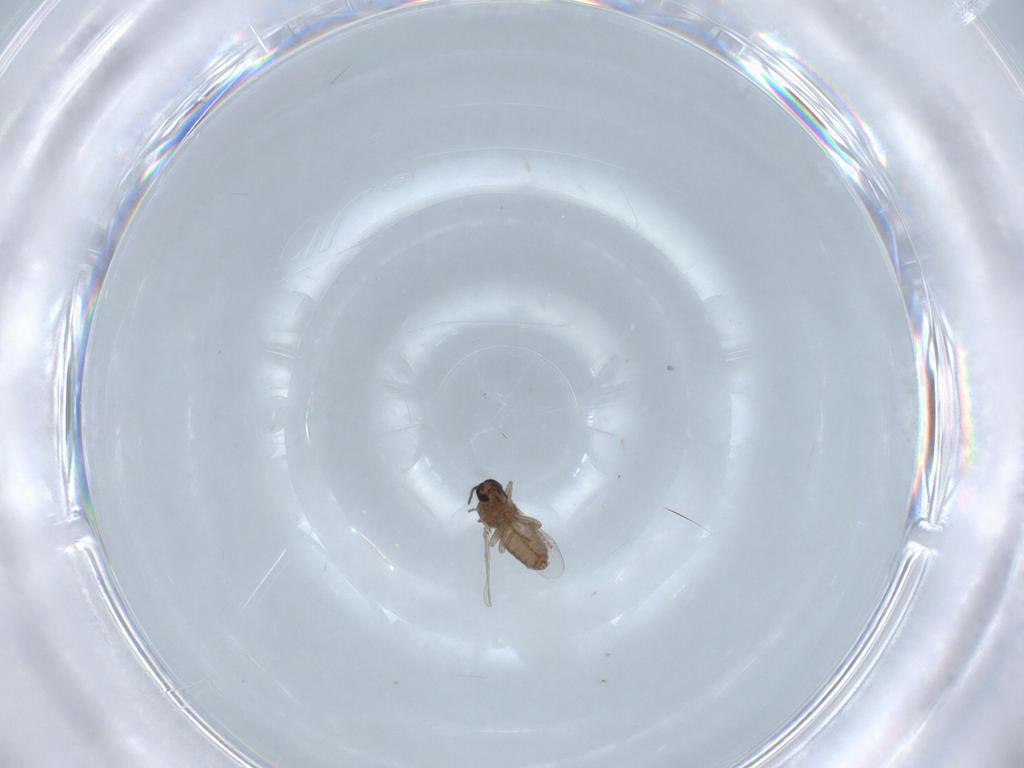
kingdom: Animalia
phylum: Arthropoda
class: Insecta
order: Diptera
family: Ceratopogonidae
